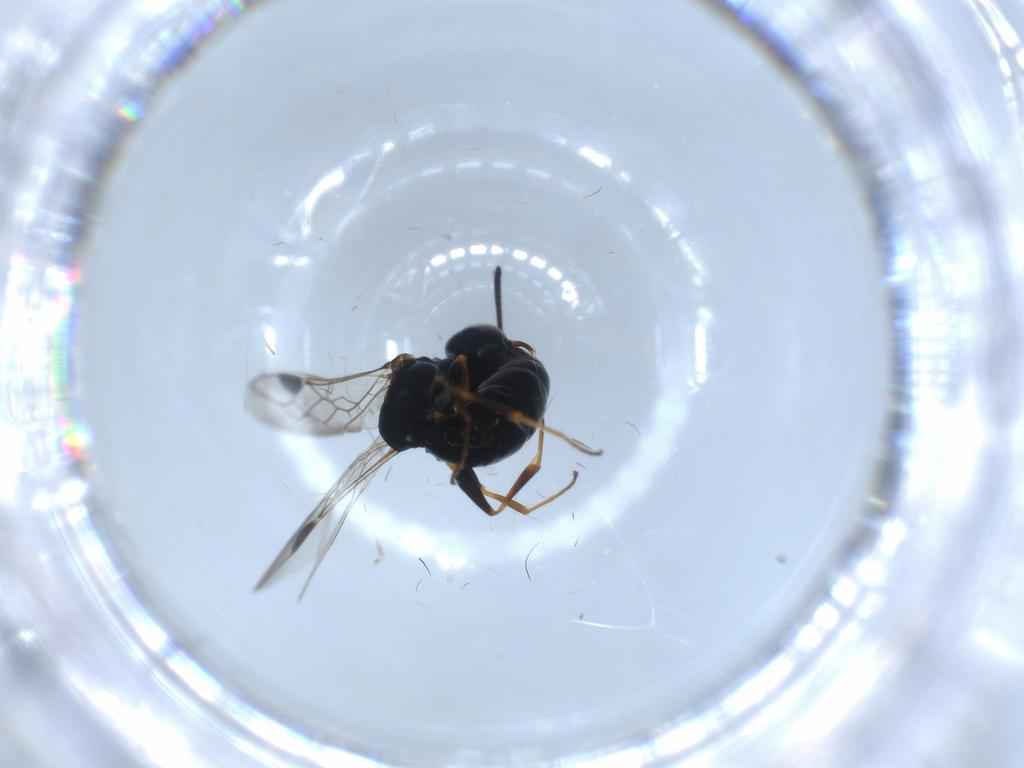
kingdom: Animalia
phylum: Arthropoda
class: Insecta
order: Hymenoptera
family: Crabronidae
